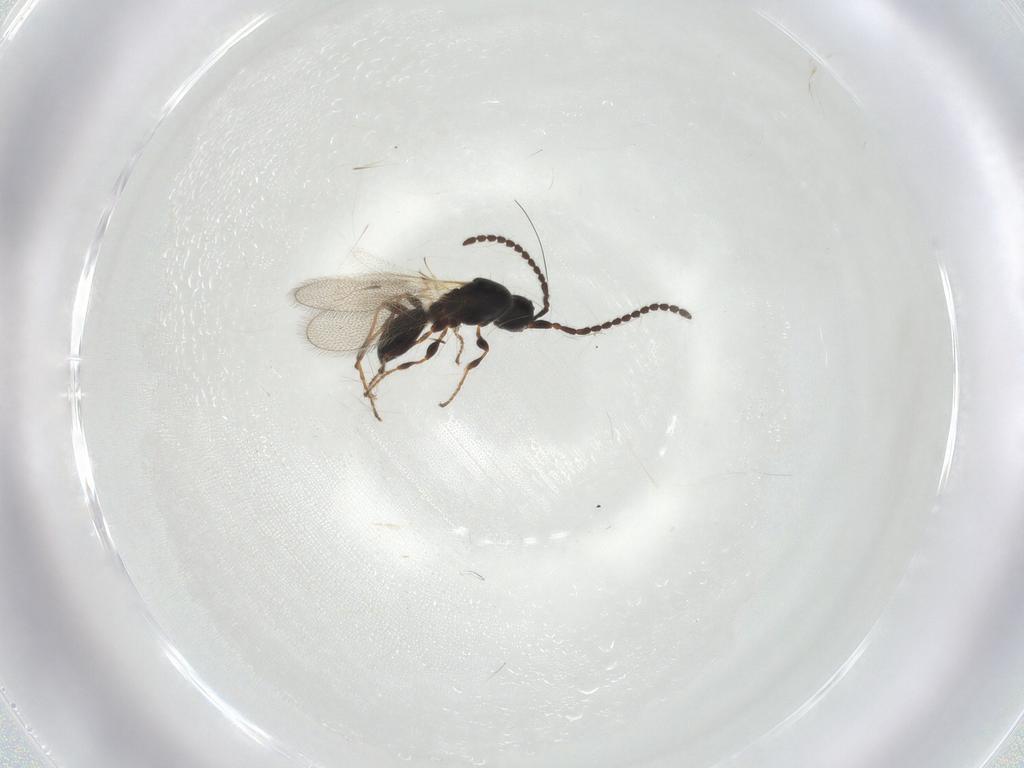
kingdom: Animalia
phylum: Arthropoda
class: Insecta
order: Hymenoptera
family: Diapriidae
